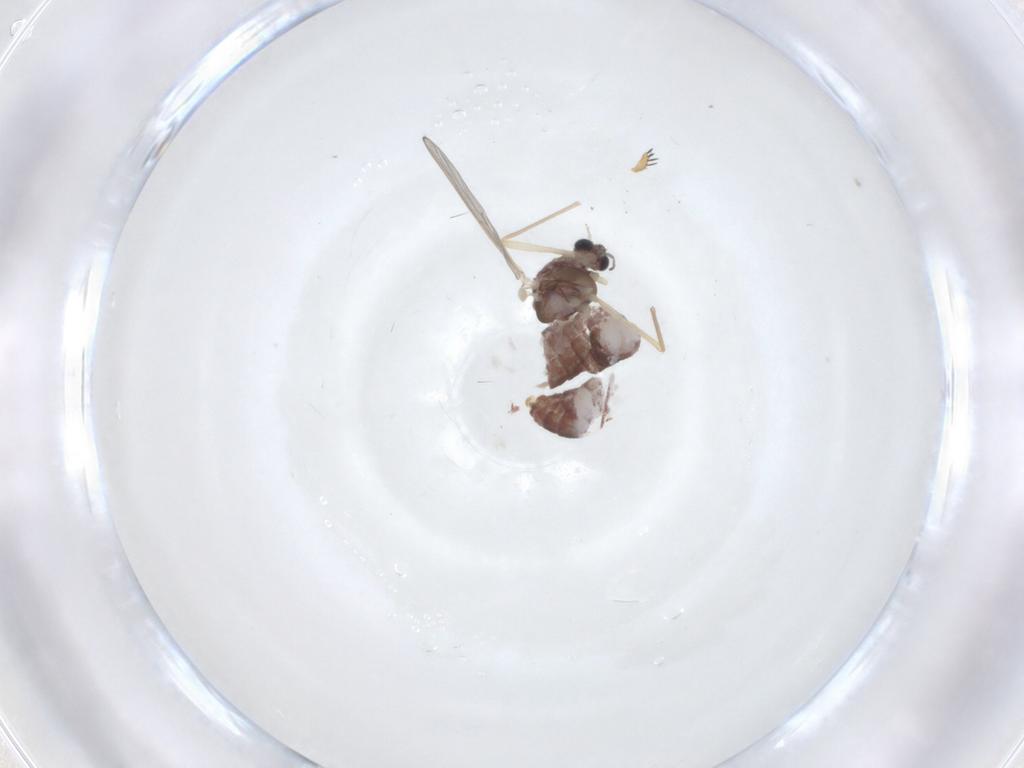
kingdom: Animalia
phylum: Arthropoda
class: Insecta
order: Diptera
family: Chironomidae
